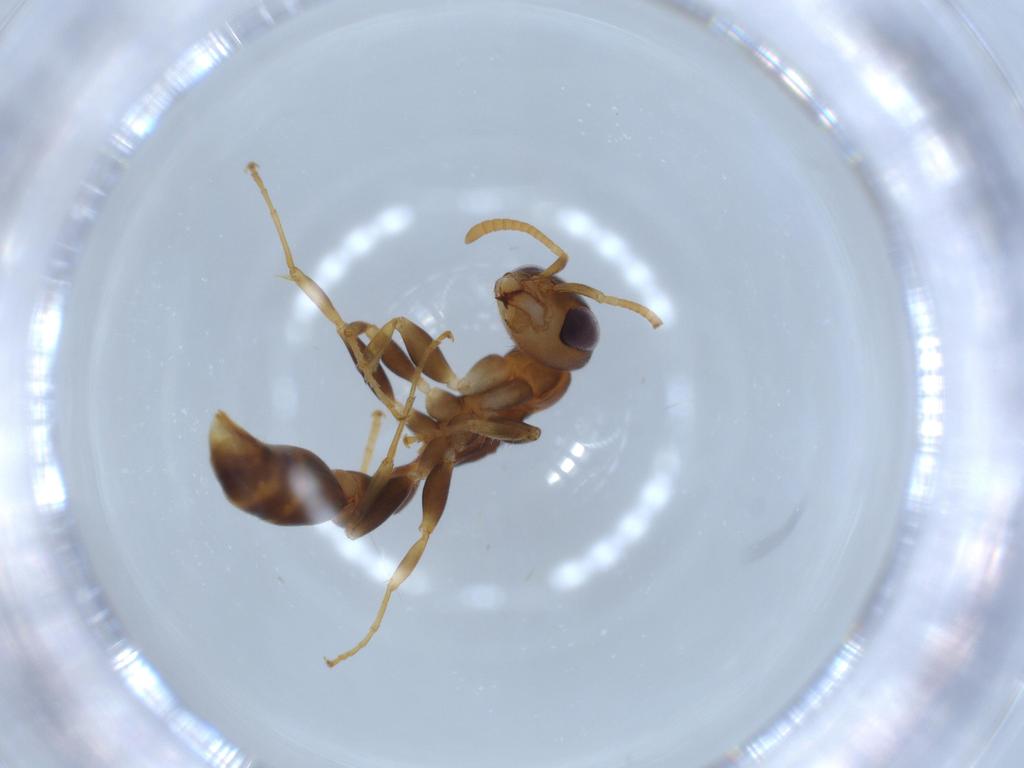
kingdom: Animalia
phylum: Arthropoda
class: Insecta
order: Hymenoptera
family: Formicidae
